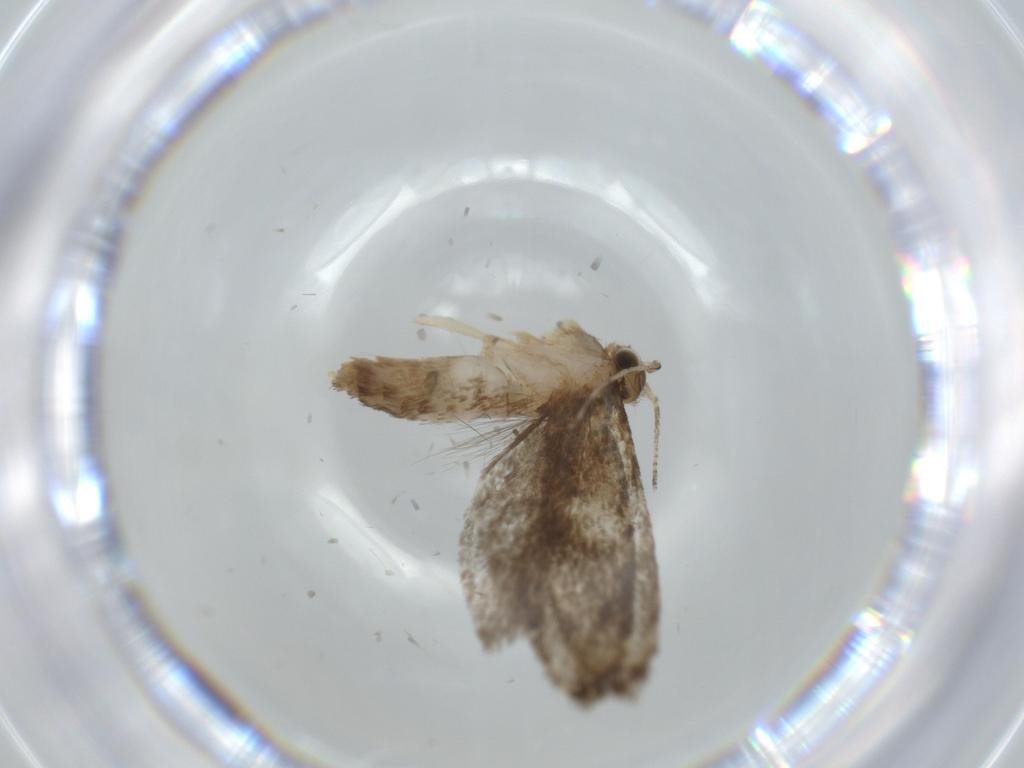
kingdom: Animalia
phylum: Arthropoda
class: Insecta
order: Lepidoptera
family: Tineidae
